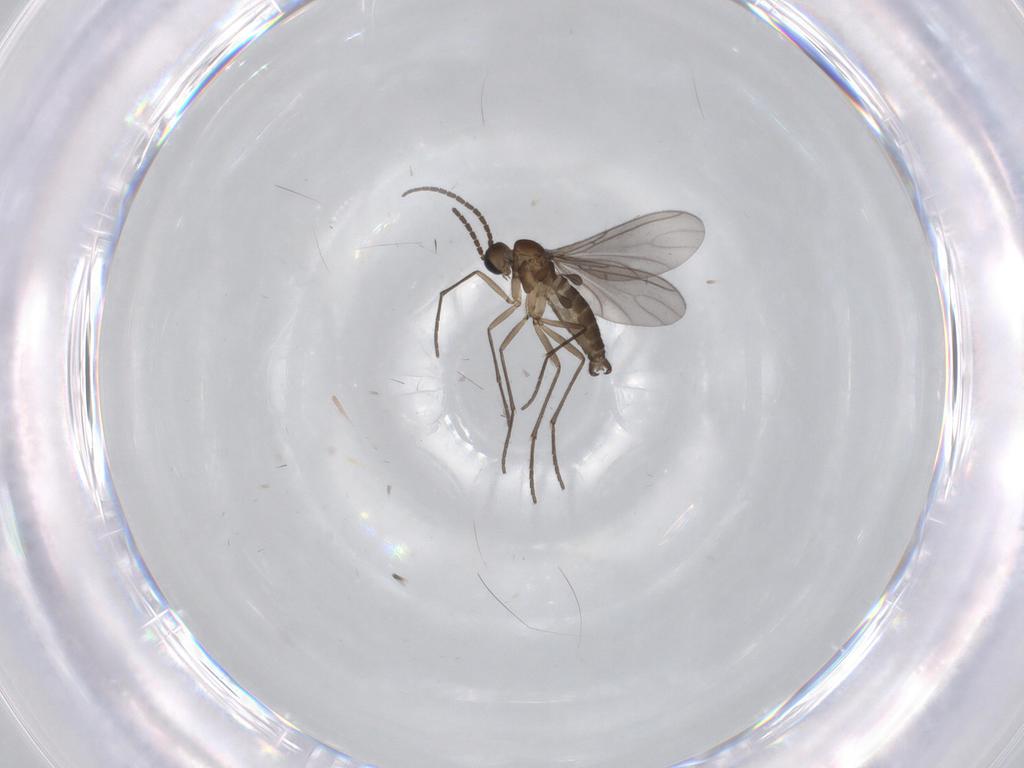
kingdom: Animalia
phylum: Arthropoda
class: Insecta
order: Diptera
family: Sciaridae
